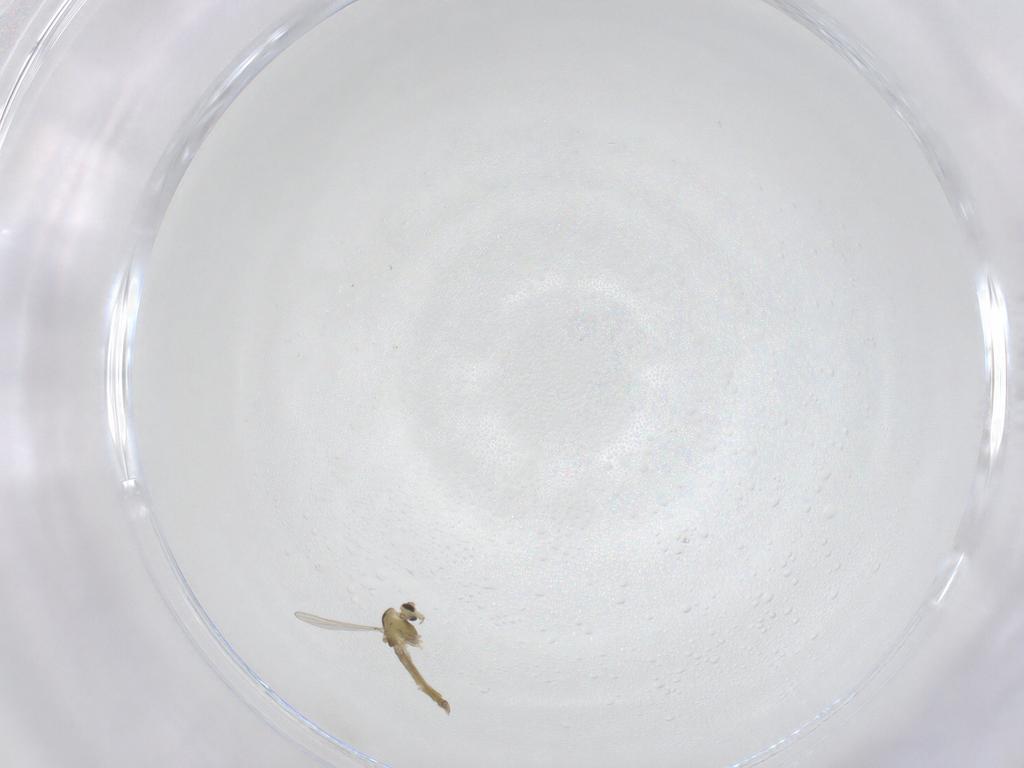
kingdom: Animalia
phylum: Arthropoda
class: Insecta
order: Diptera
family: Chironomidae
